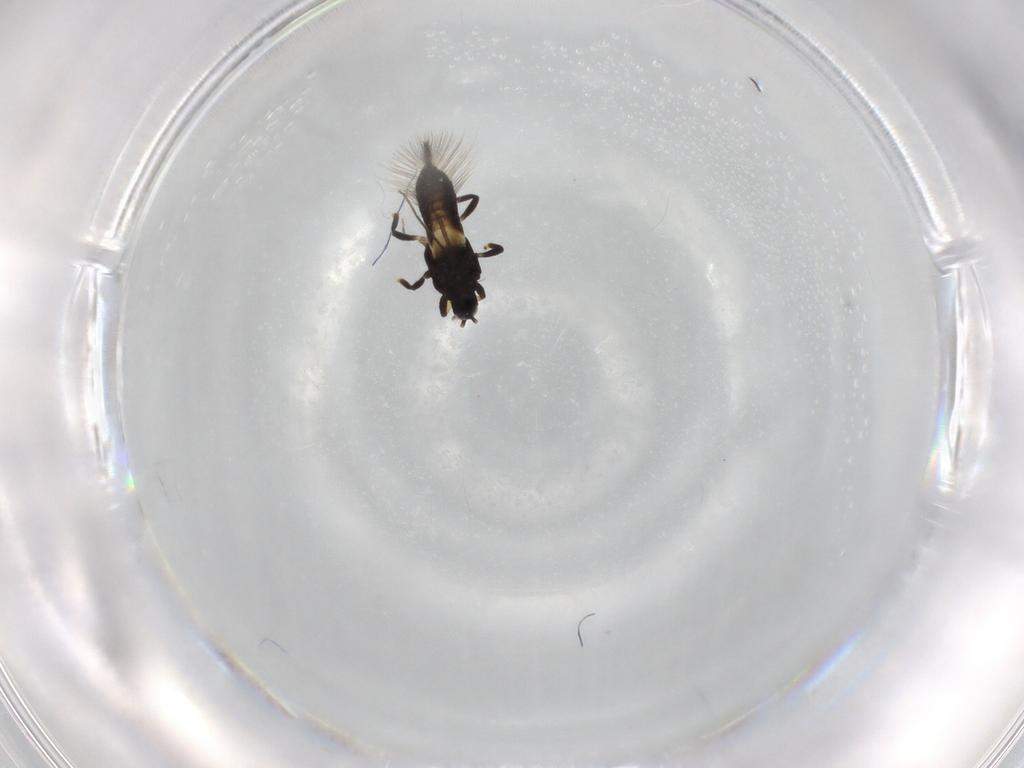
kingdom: Animalia
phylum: Arthropoda
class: Insecta
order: Thysanoptera
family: Phlaeothripidae
